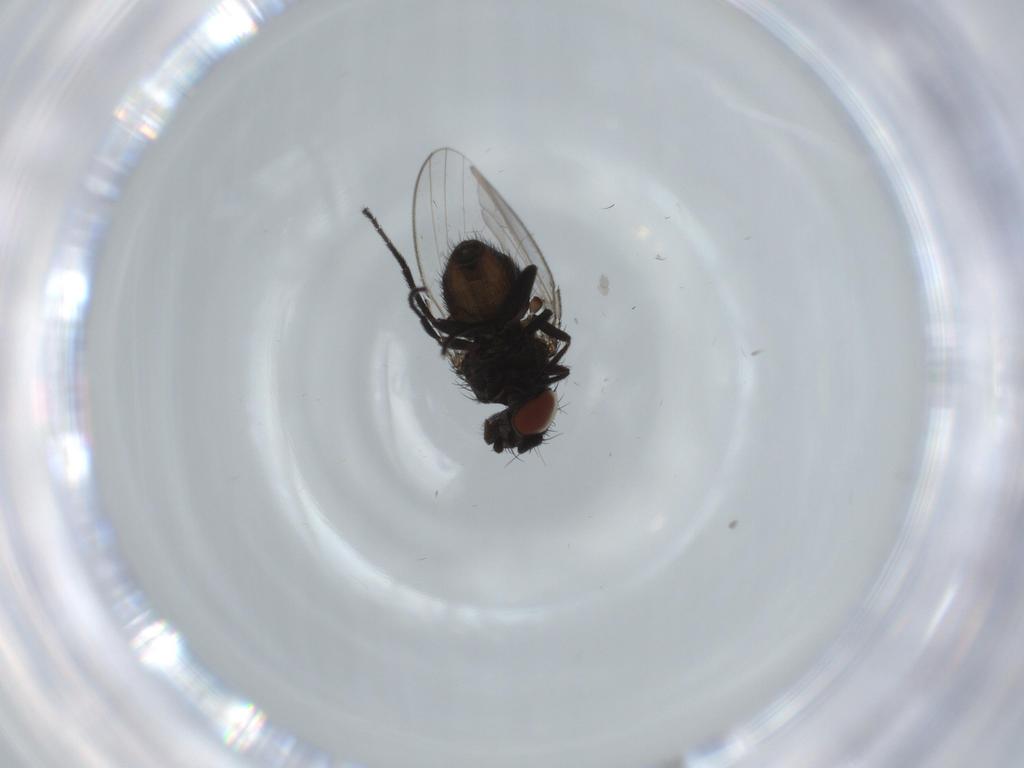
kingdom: Animalia
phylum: Arthropoda
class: Insecta
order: Diptera
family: Milichiidae
